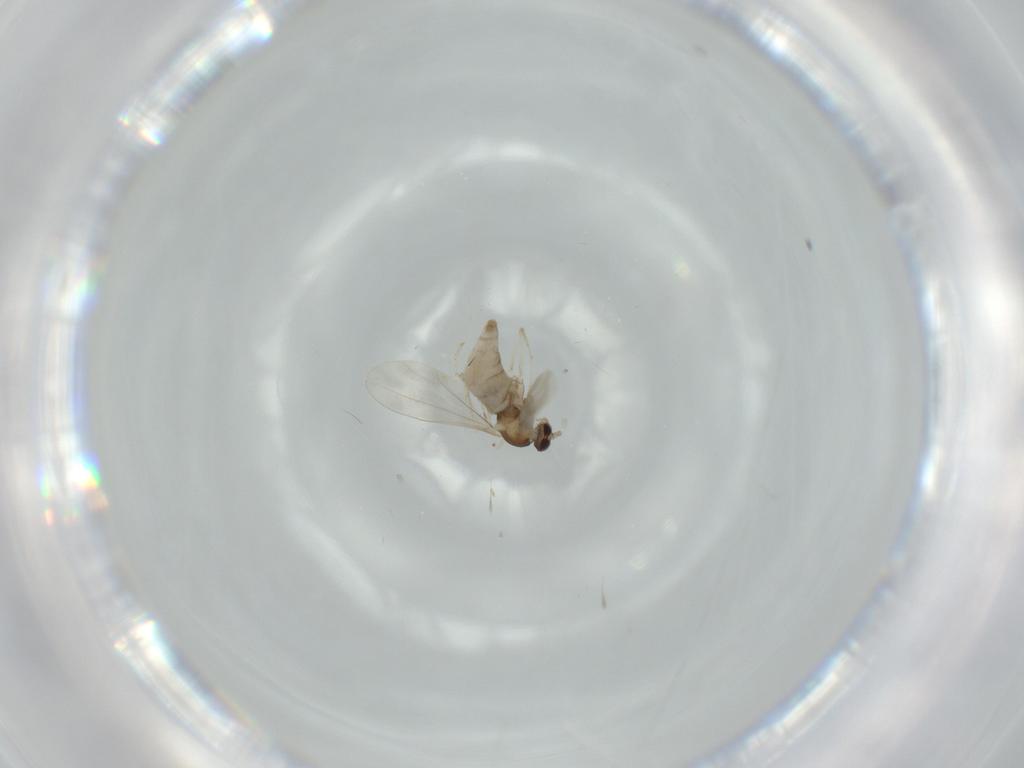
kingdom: Animalia
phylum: Arthropoda
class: Insecta
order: Diptera
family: Cecidomyiidae
